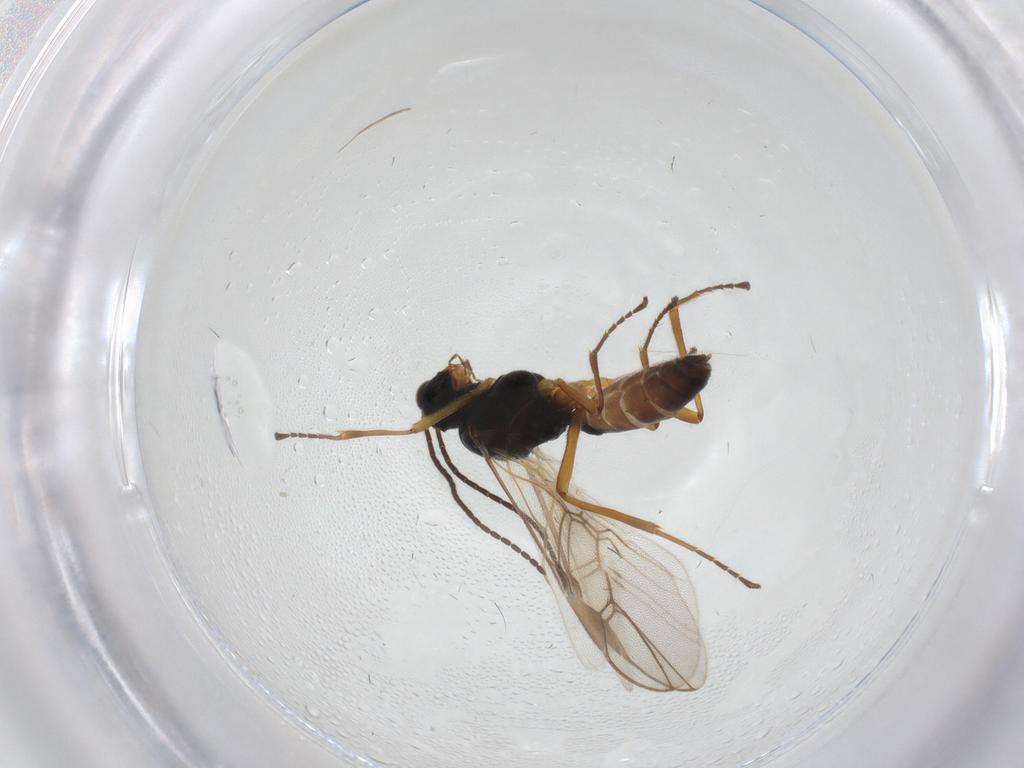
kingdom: Animalia
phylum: Arthropoda
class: Insecta
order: Hymenoptera
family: Braconidae
